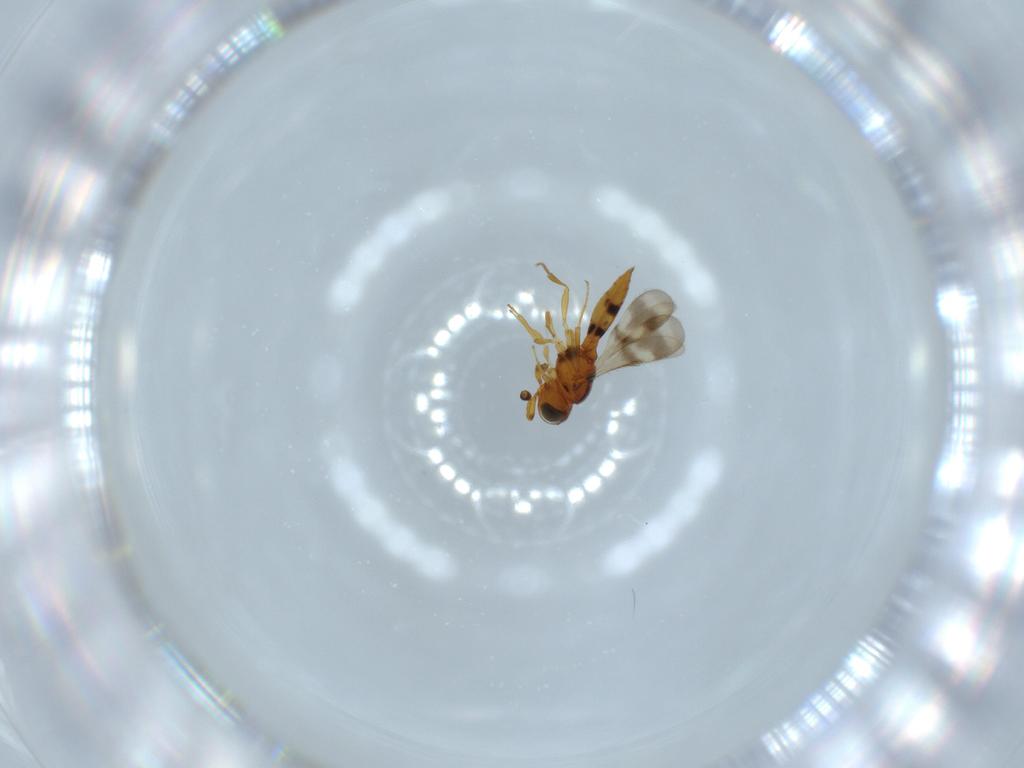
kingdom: Animalia
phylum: Arthropoda
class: Insecta
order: Hymenoptera
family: Scelionidae
